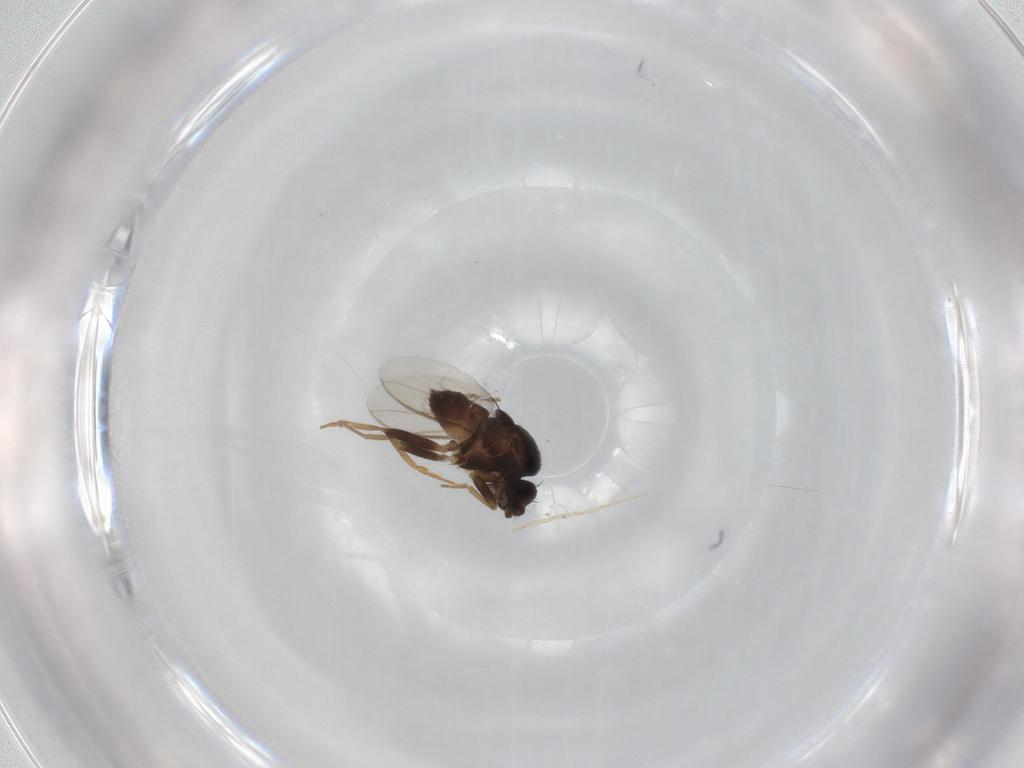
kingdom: Animalia
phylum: Arthropoda
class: Insecta
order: Diptera
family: Sphaeroceridae
